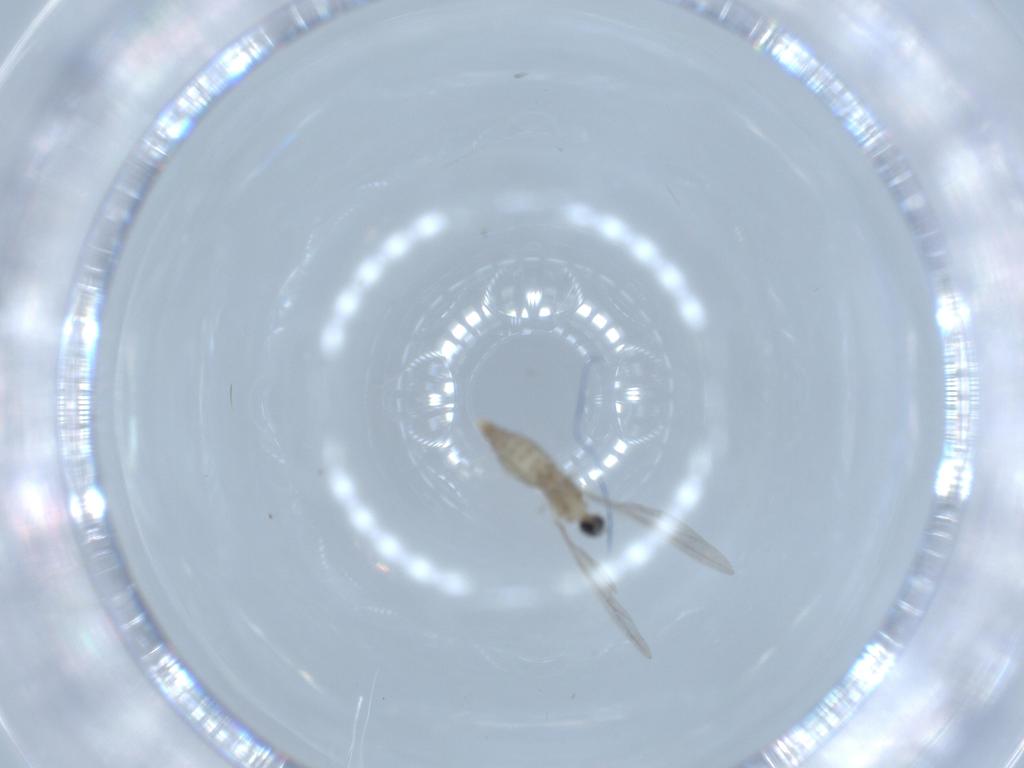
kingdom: Animalia
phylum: Arthropoda
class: Insecta
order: Diptera
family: Cecidomyiidae
